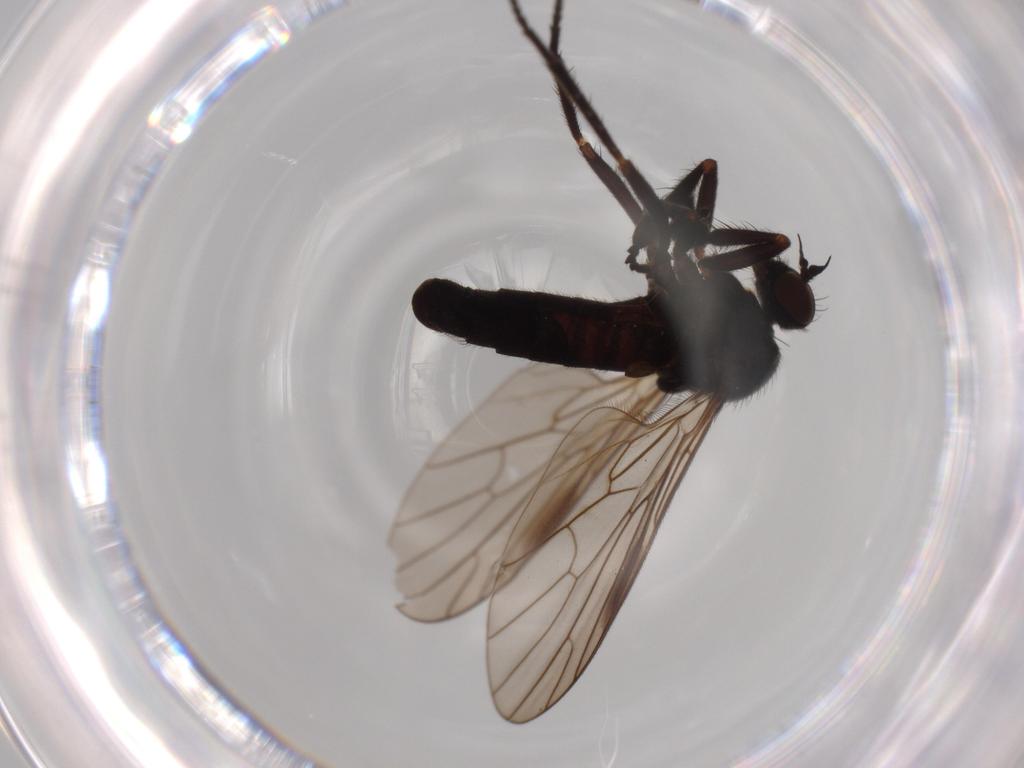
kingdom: Animalia
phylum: Arthropoda
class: Insecta
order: Diptera
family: Empididae
